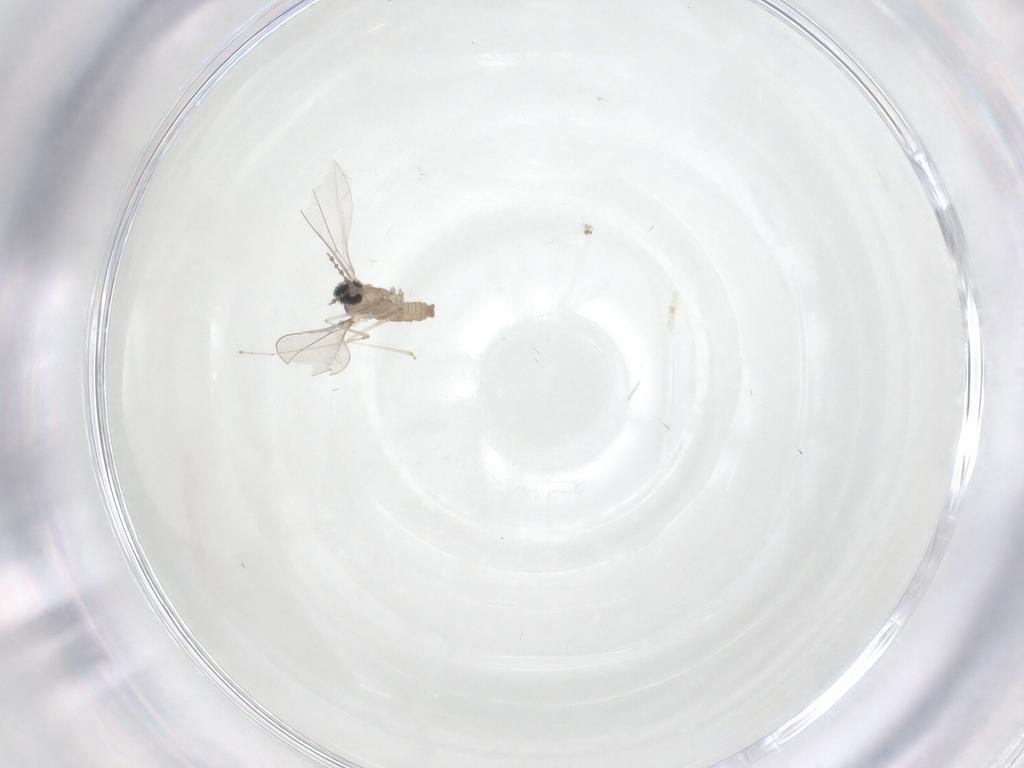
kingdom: Animalia
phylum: Arthropoda
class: Insecta
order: Diptera
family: Cecidomyiidae
